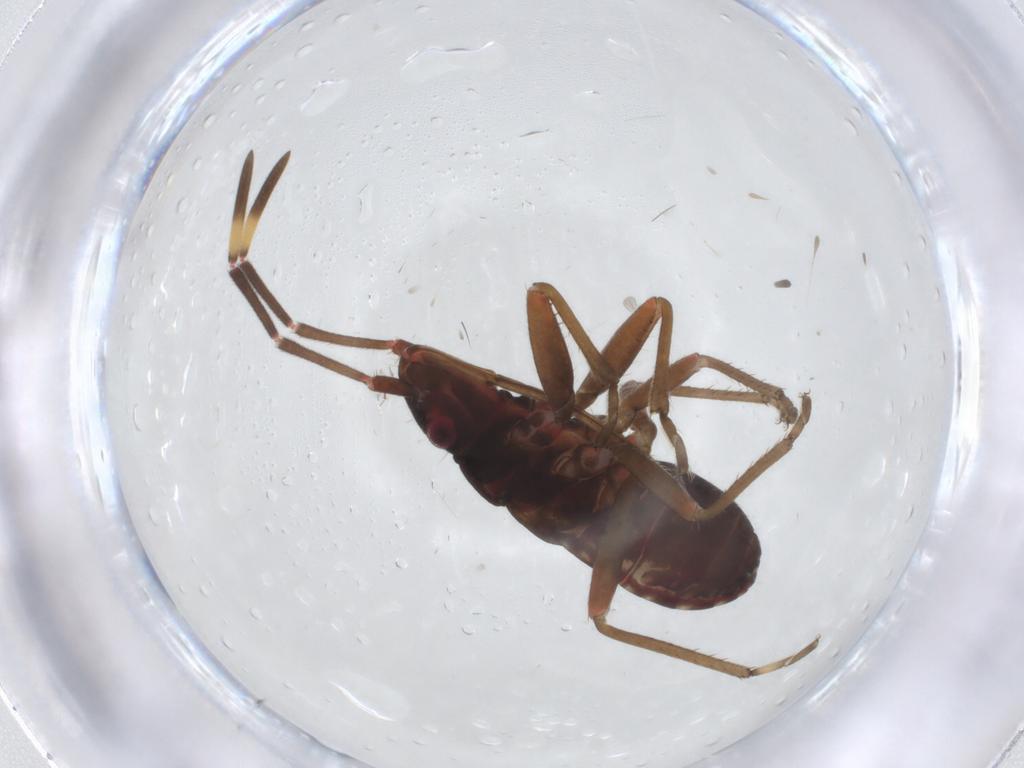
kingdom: Animalia
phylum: Arthropoda
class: Insecta
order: Hemiptera
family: Rhyparochromidae
